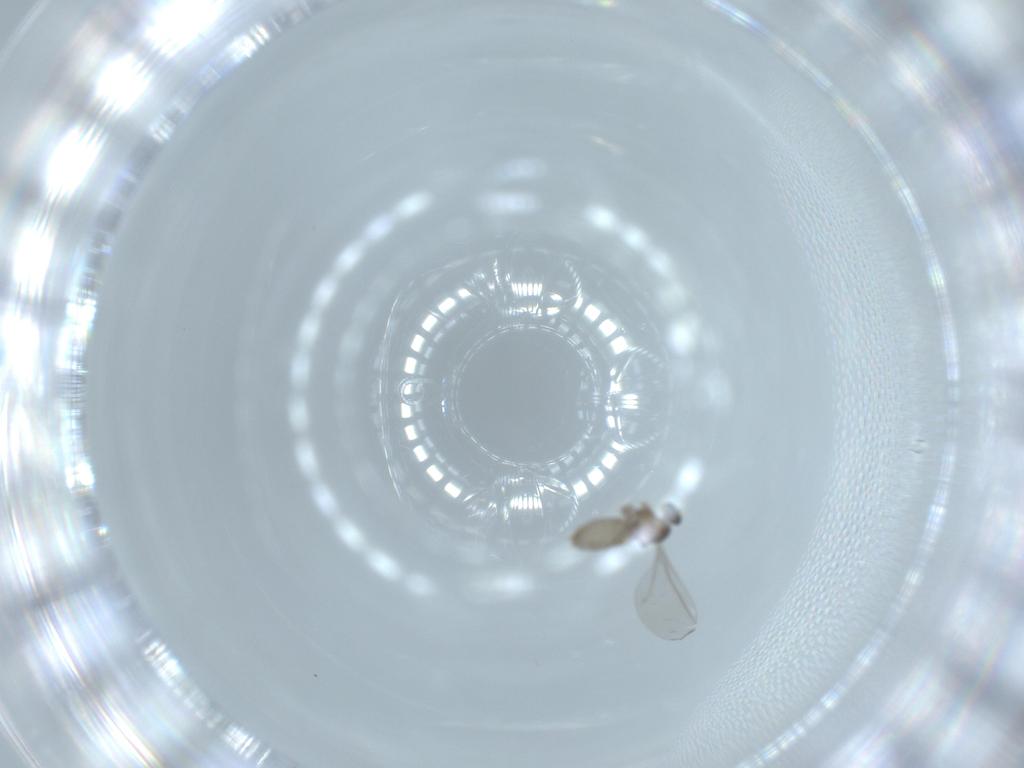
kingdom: Animalia
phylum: Arthropoda
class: Insecta
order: Diptera
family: Cecidomyiidae
